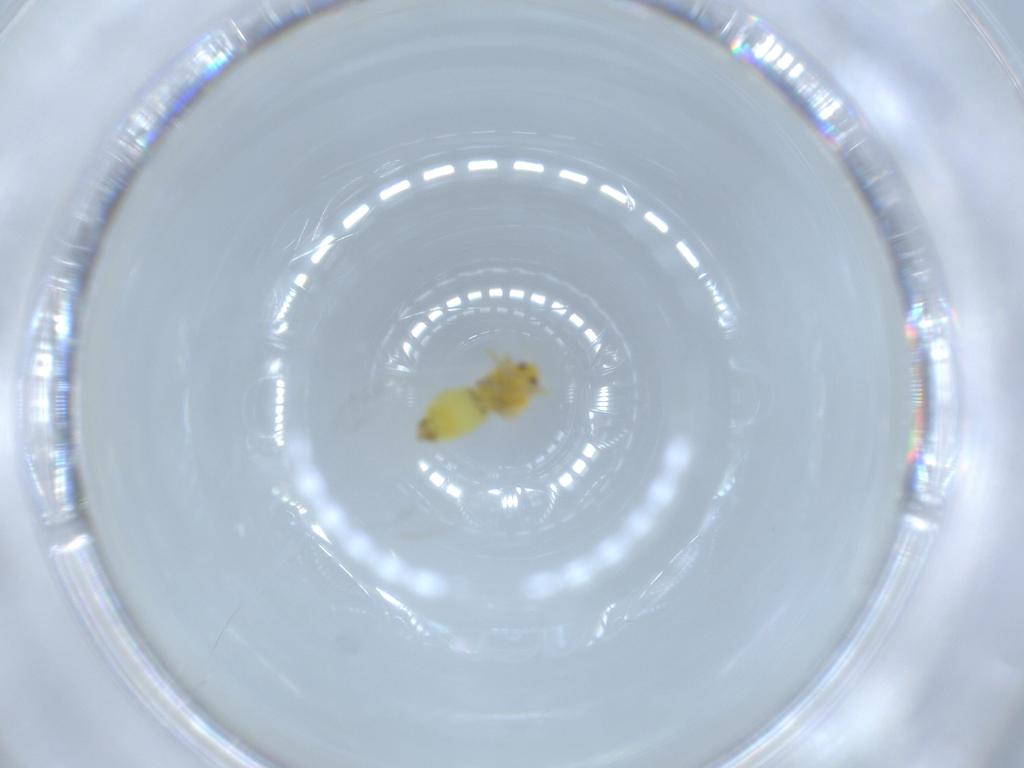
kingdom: Animalia
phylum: Arthropoda
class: Insecta
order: Hemiptera
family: Aleyrodidae
